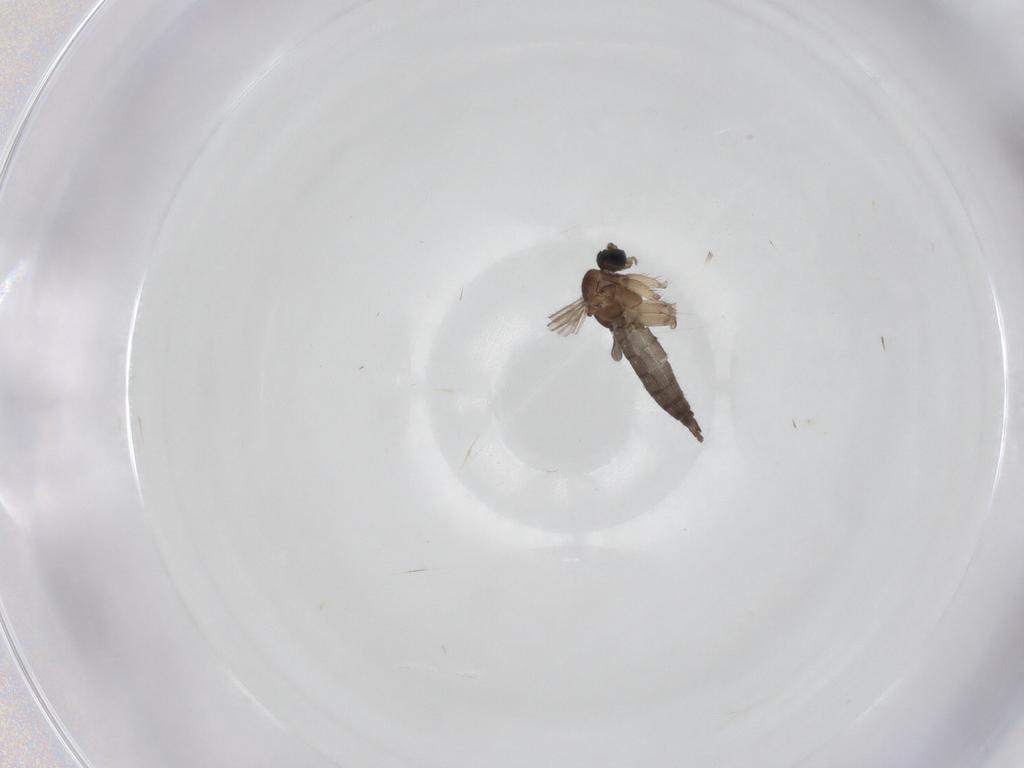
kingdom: Animalia
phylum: Arthropoda
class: Insecta
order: Diptera
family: Sciaridae
